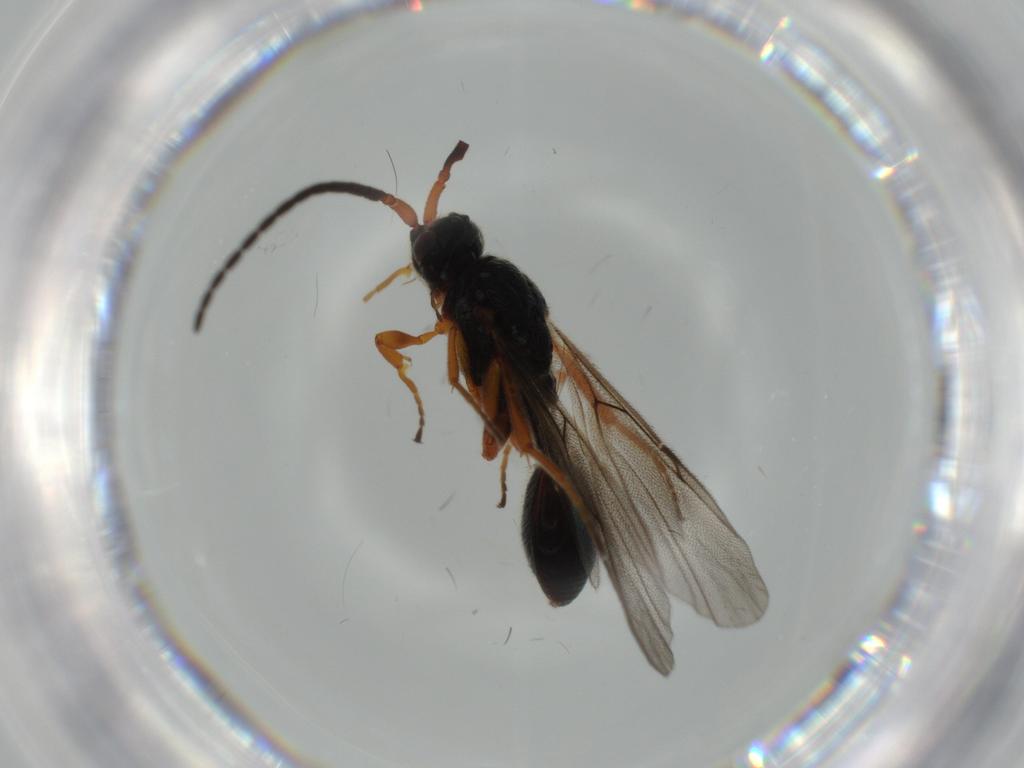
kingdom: Animalia
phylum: Arthropoda
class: Insecta
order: Hymenoptera
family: Diapriidae
